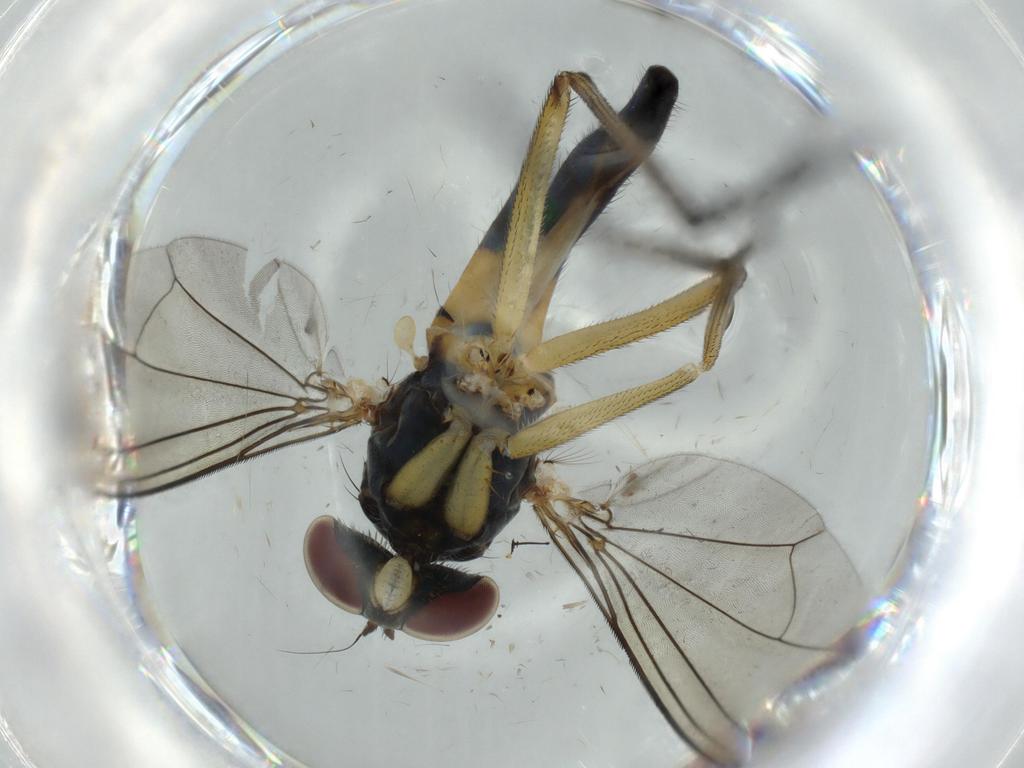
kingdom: Animalia
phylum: Arthropoda
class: Insecta
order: Diptera
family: Dolichopodidae
